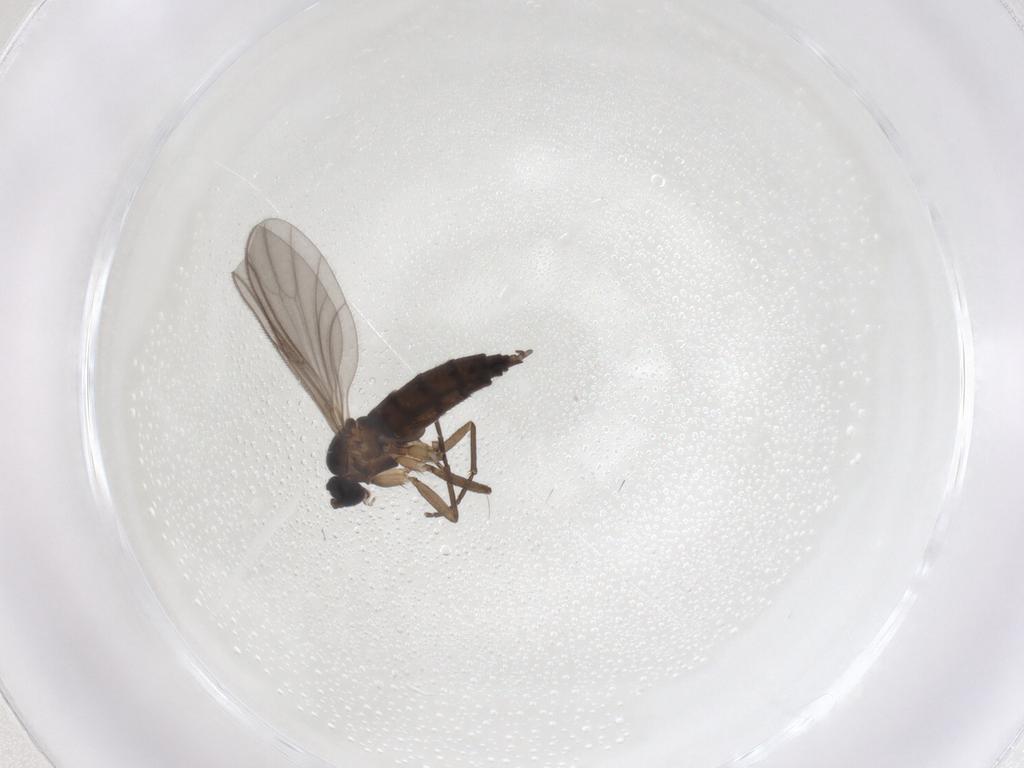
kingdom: Animalia
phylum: Arthropoda
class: Insecta
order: Diptera
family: Sciaridae
